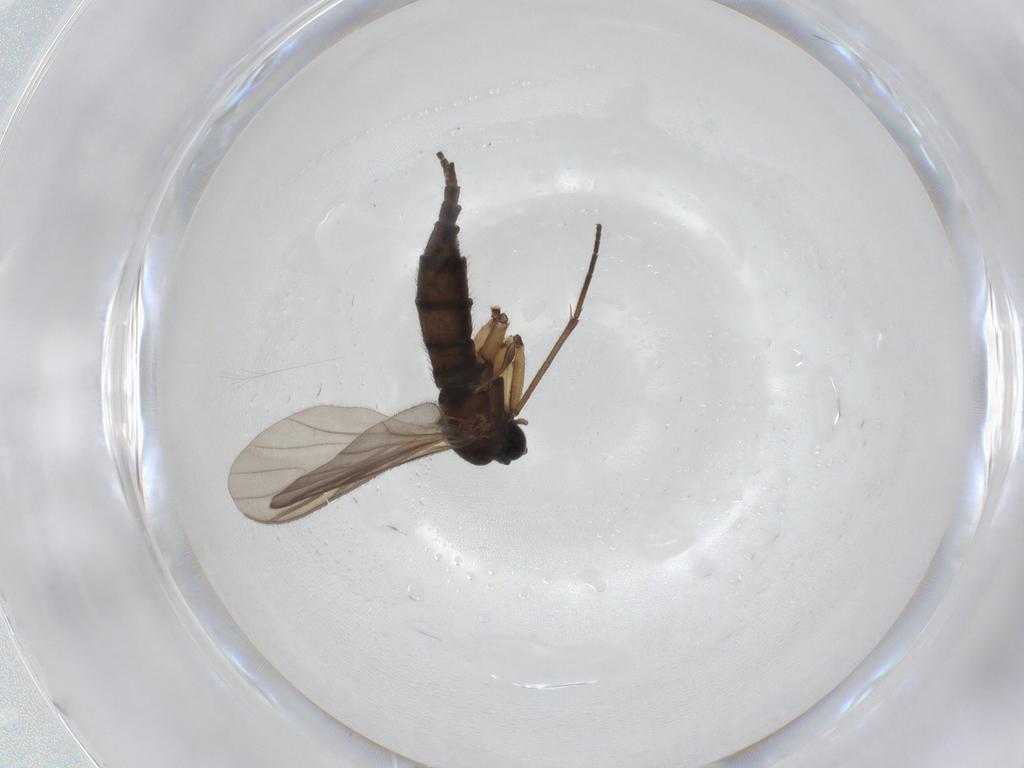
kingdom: Animalia
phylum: Arthropoda
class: Insecta
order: Diptera
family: Sciaridae
